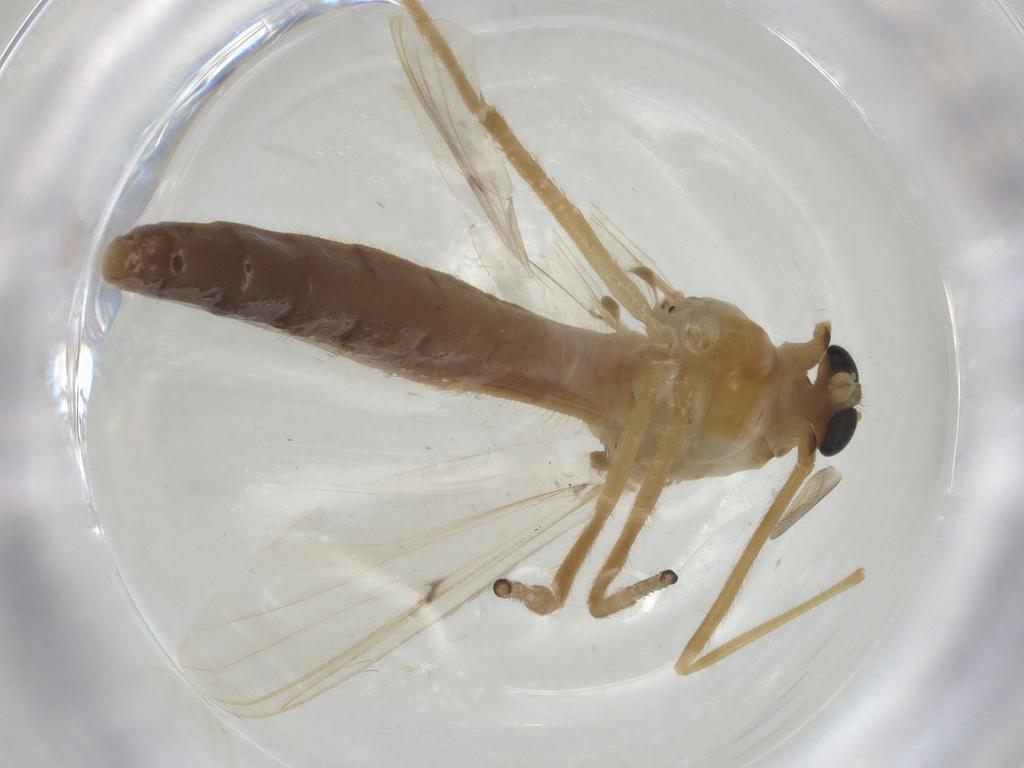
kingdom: Animalia
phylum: Arthropoda
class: Insecta
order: Diptera
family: Chironomidae
